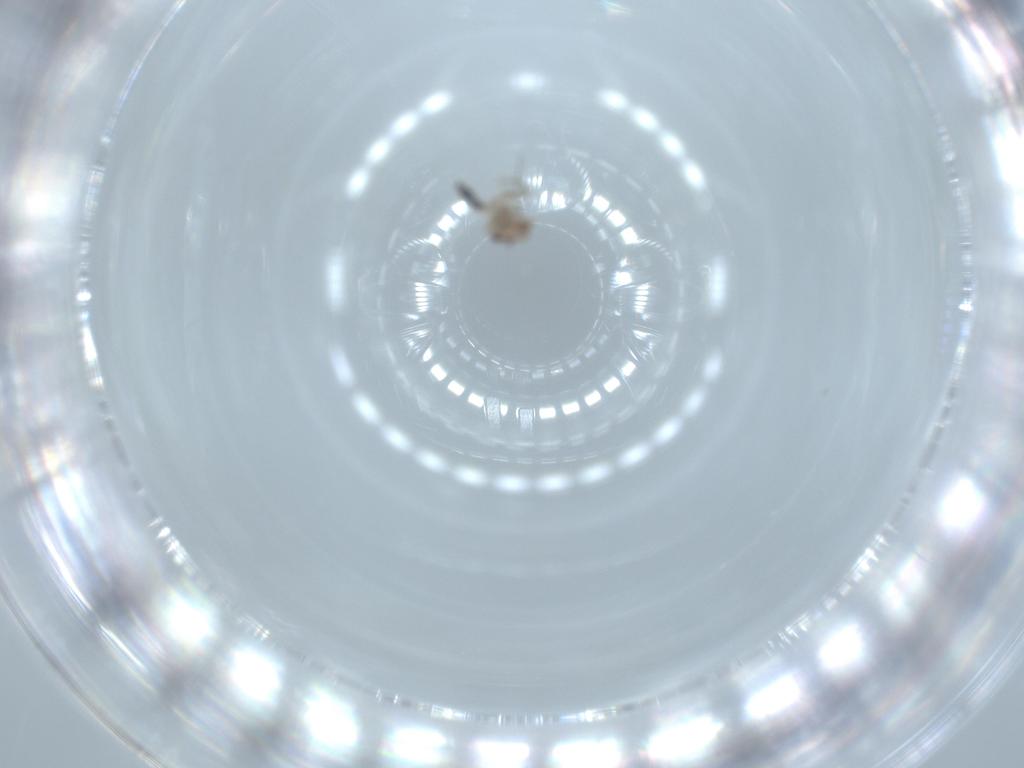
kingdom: Animalia
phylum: Arthropoda
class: Insecta
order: Psocodea
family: Lepidopsocidae
